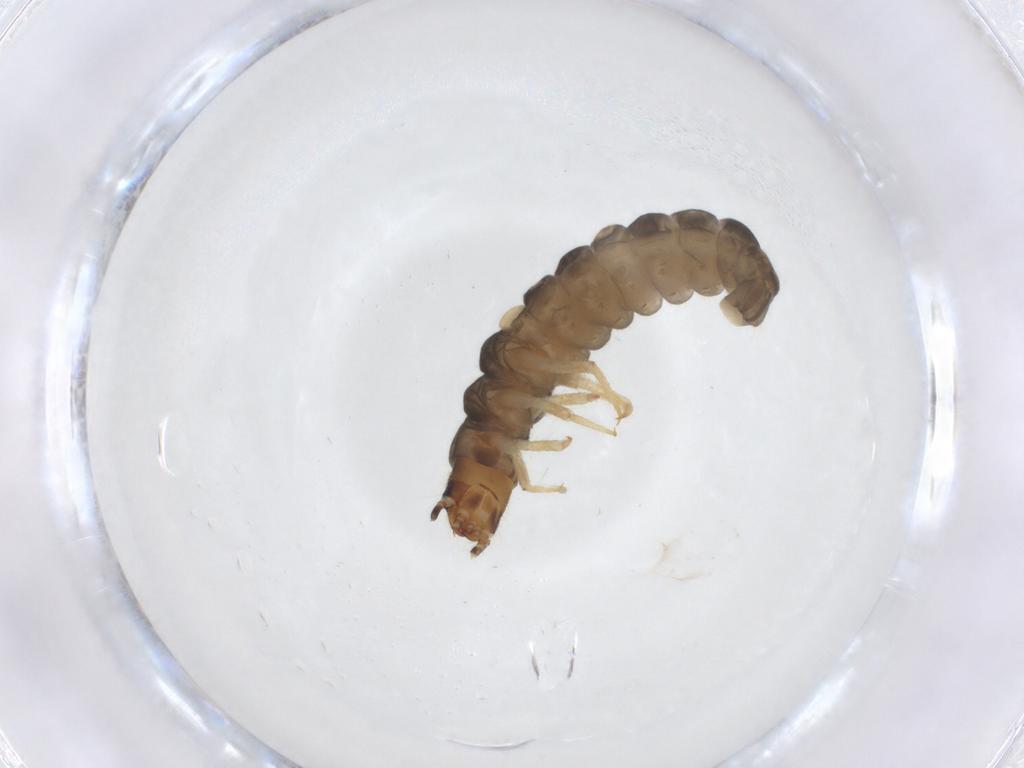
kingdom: Animalia
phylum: Arthropoda
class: Insecta
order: Coleoptera
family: Cantharidae
